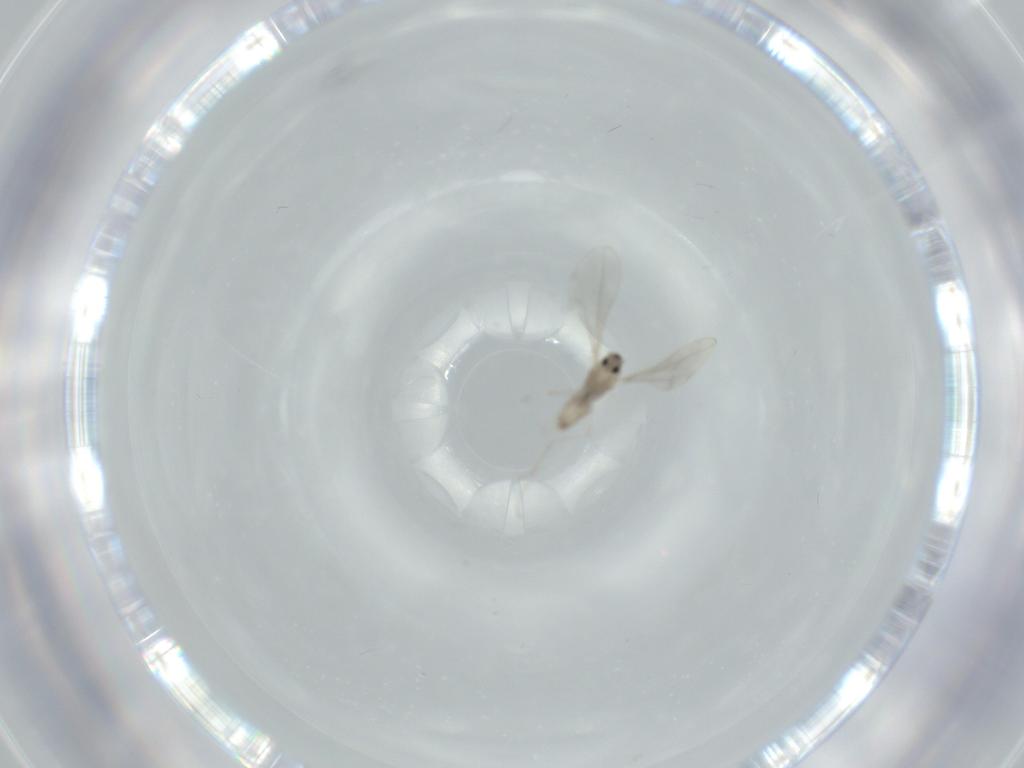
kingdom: Animalia
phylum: Arthropoda
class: Insecta
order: Diptera
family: Cecidomyiidae
